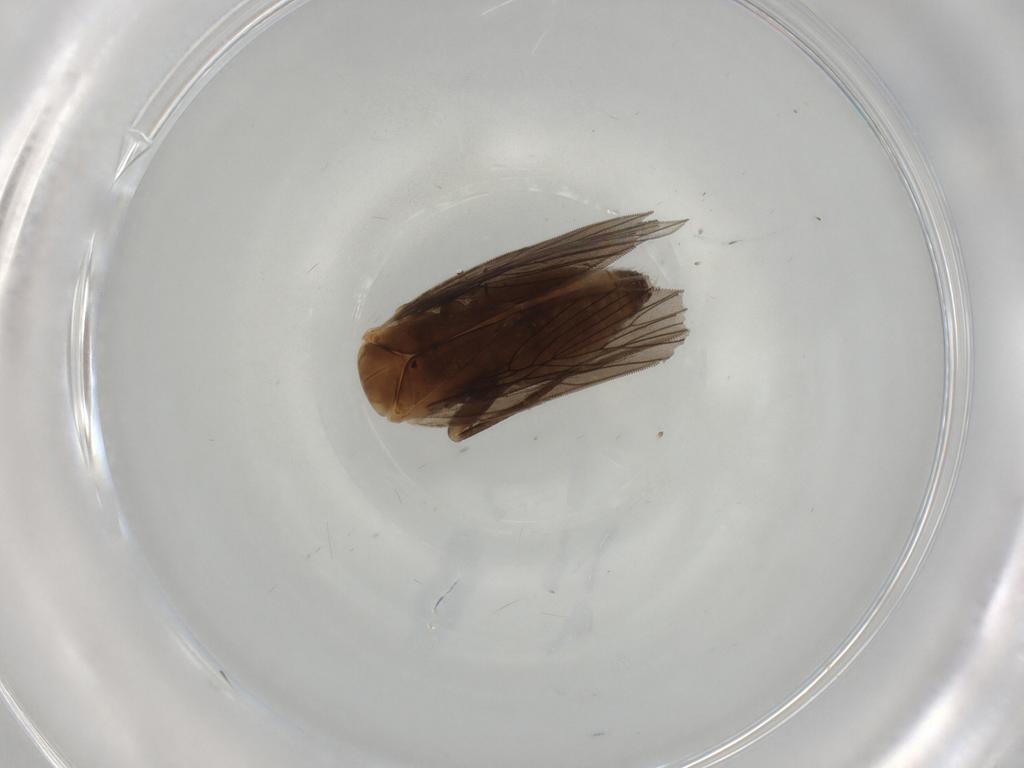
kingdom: Animalia
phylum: Arthropoda
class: Insecta
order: Psocodea
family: Lepidopsocidae
